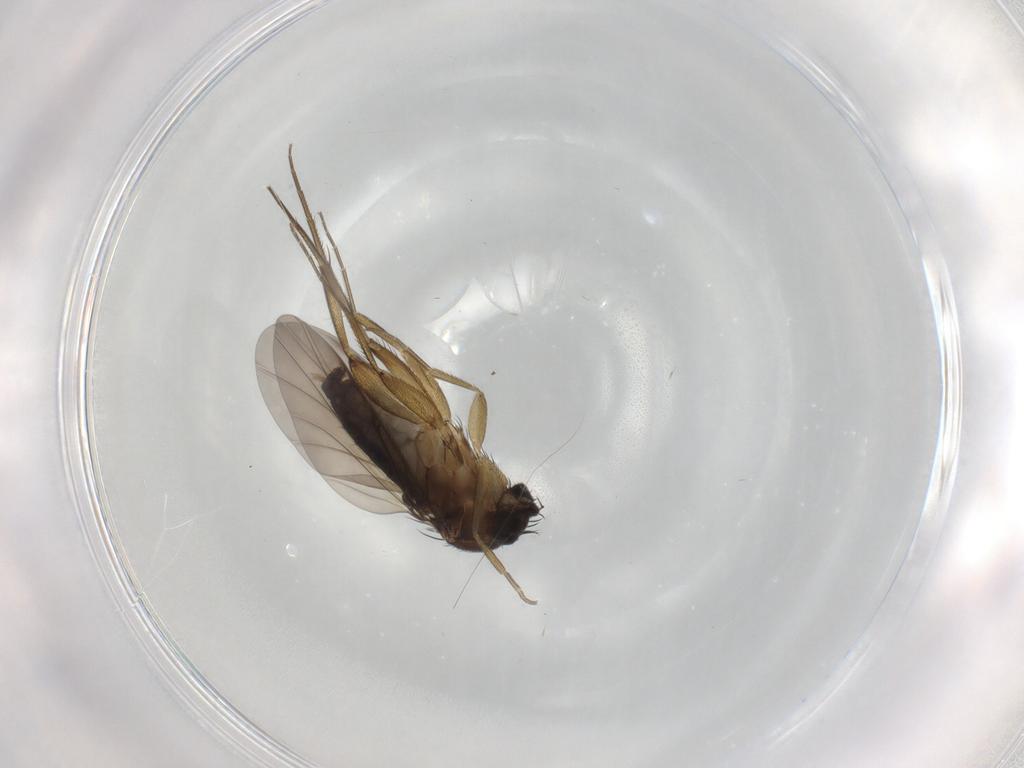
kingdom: Animalia
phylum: Arthropoda
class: Insecta
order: Diptera
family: Phoridae
